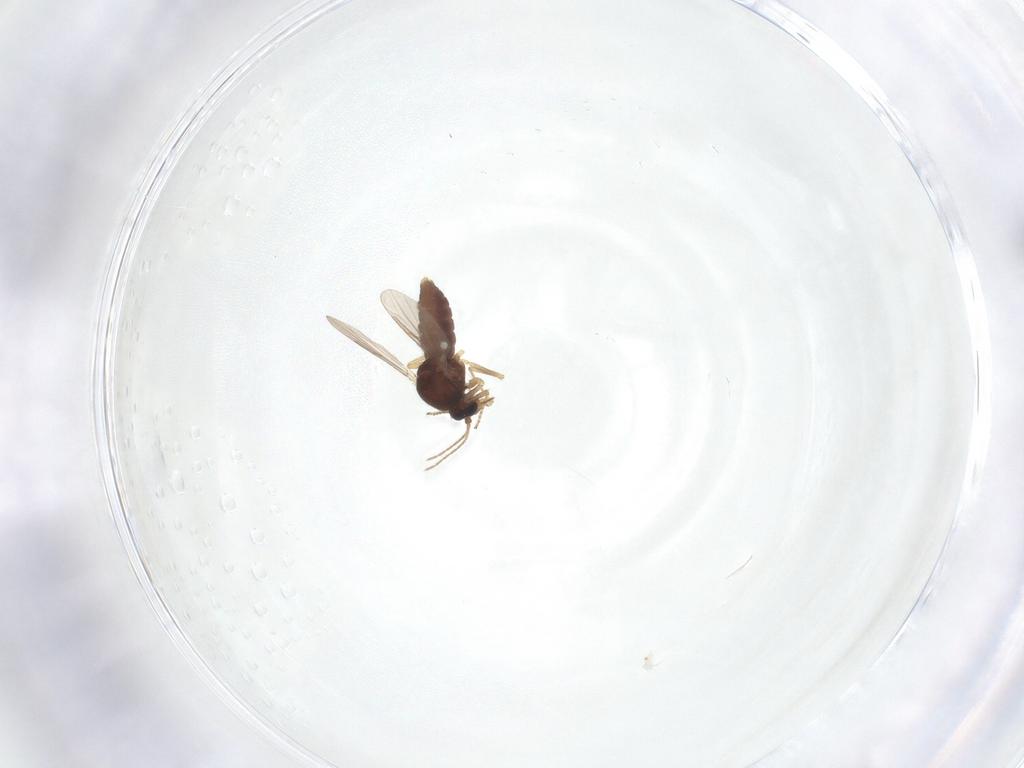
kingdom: Animalia
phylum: Arthropoda
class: Insecta
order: Diptera
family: Ceratopogonidae
